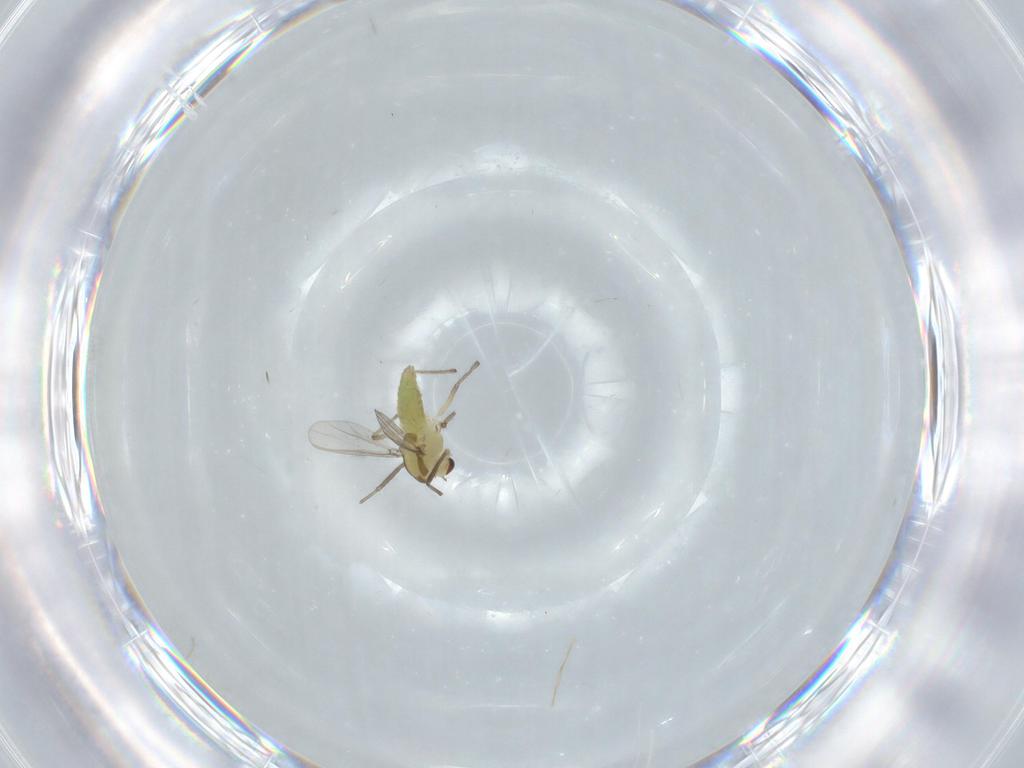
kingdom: Animalia
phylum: Arthropoda
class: Insecta
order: Diptera
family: Chironomidae
